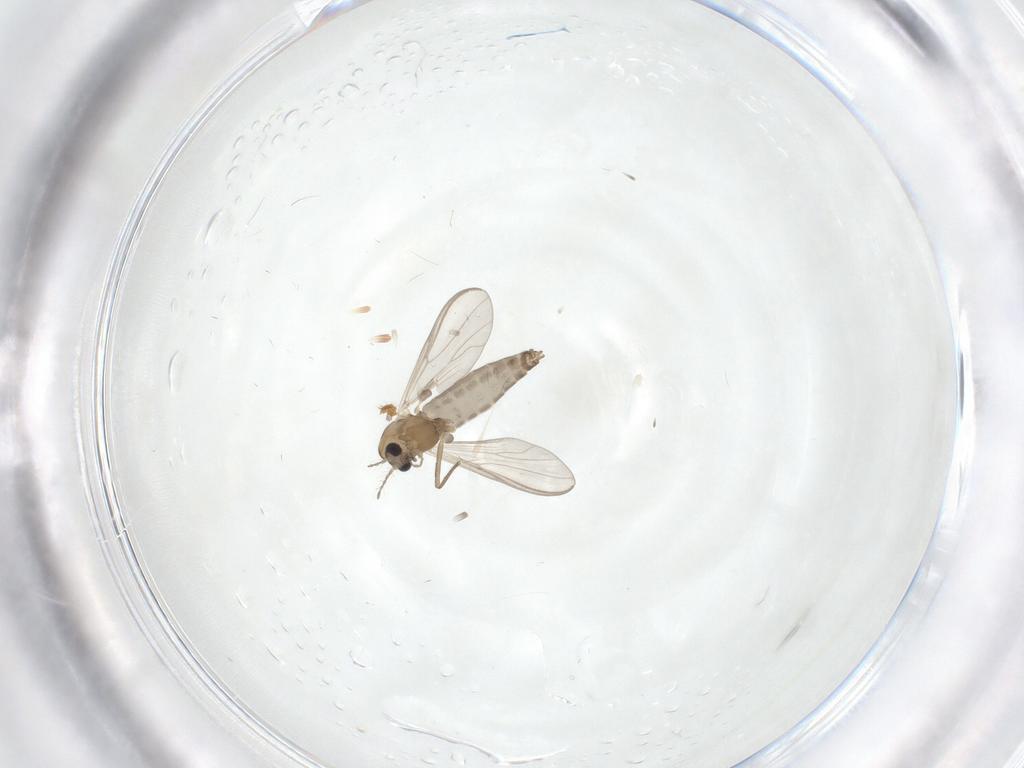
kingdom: Animalia
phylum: Arthropoda
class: Insecta
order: Diptera
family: Chironomidae
